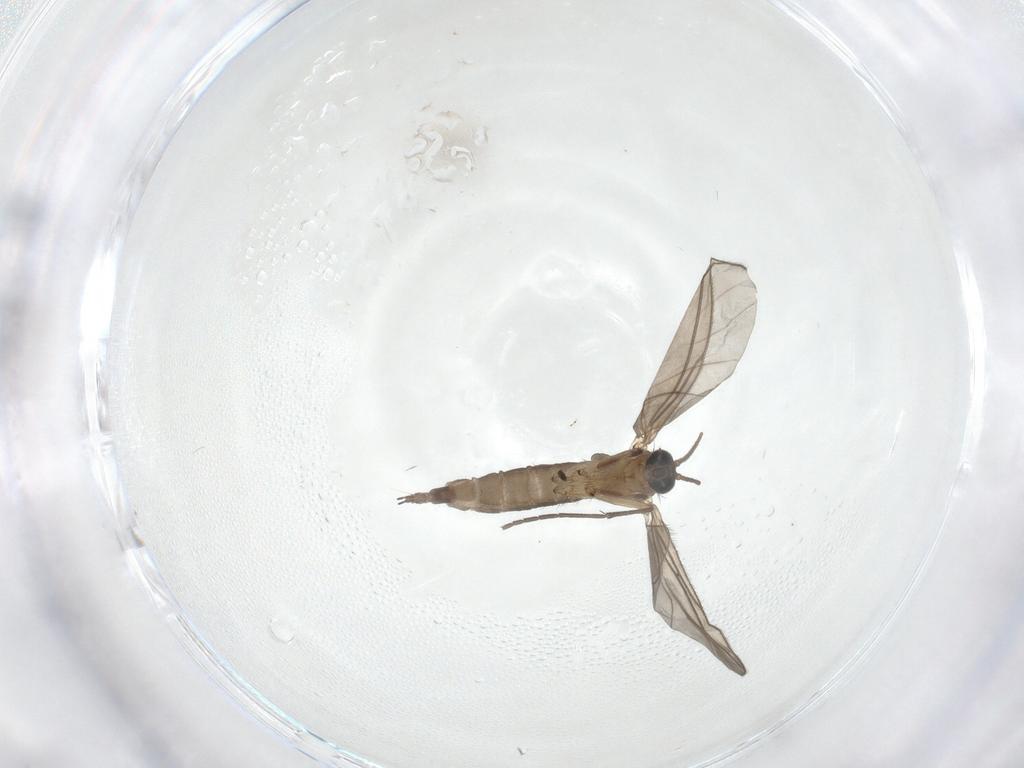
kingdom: Animalia
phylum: Arthropoda
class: Insecta
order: Diptera
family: Sciaridae
